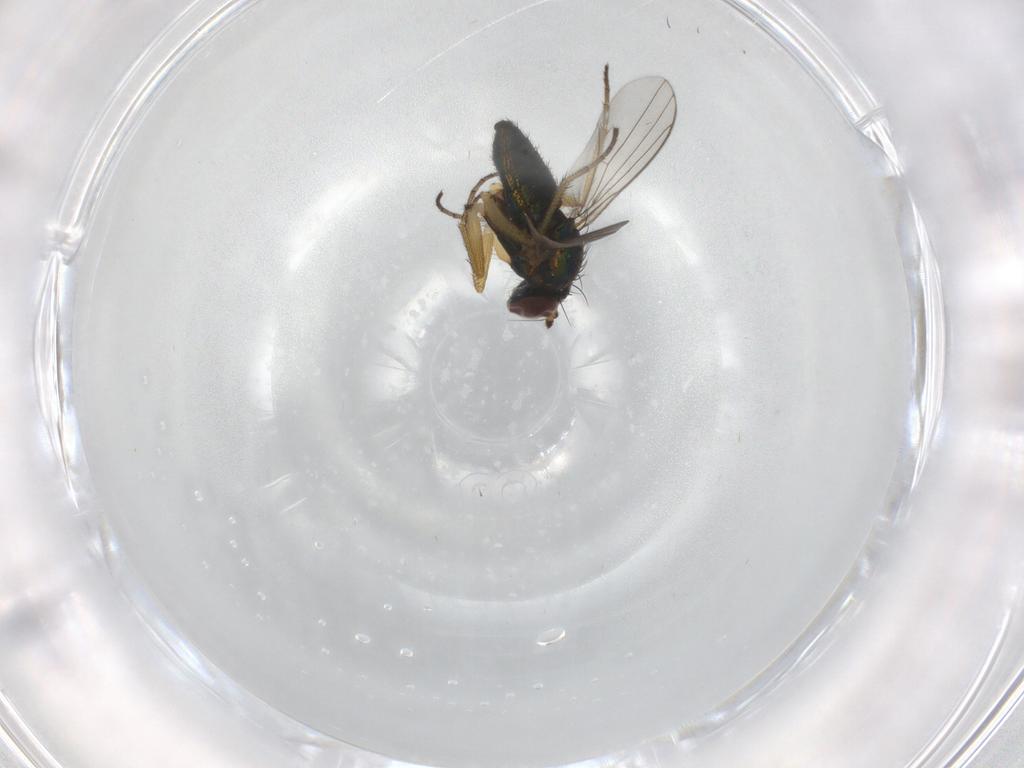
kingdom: Animalia
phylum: Arthropoda
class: Insecta
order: Diptera
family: Dolichopodidae
